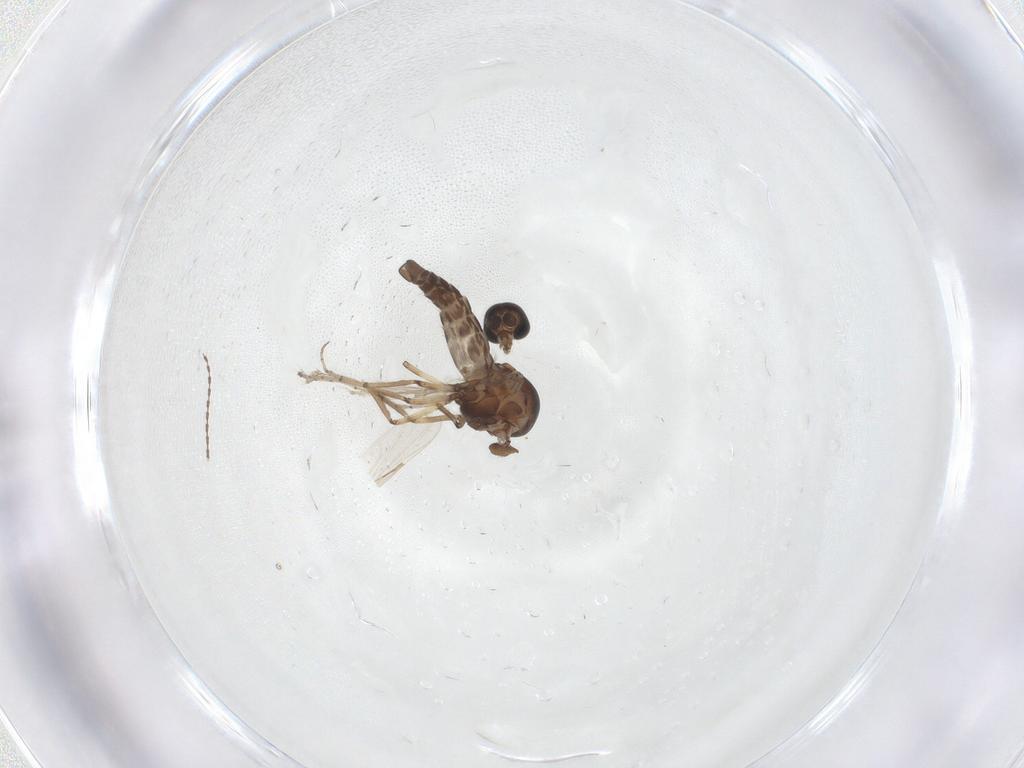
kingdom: Animalia
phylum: Arthropoda
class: Insecta
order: Diptera
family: Ceratopogonidae
